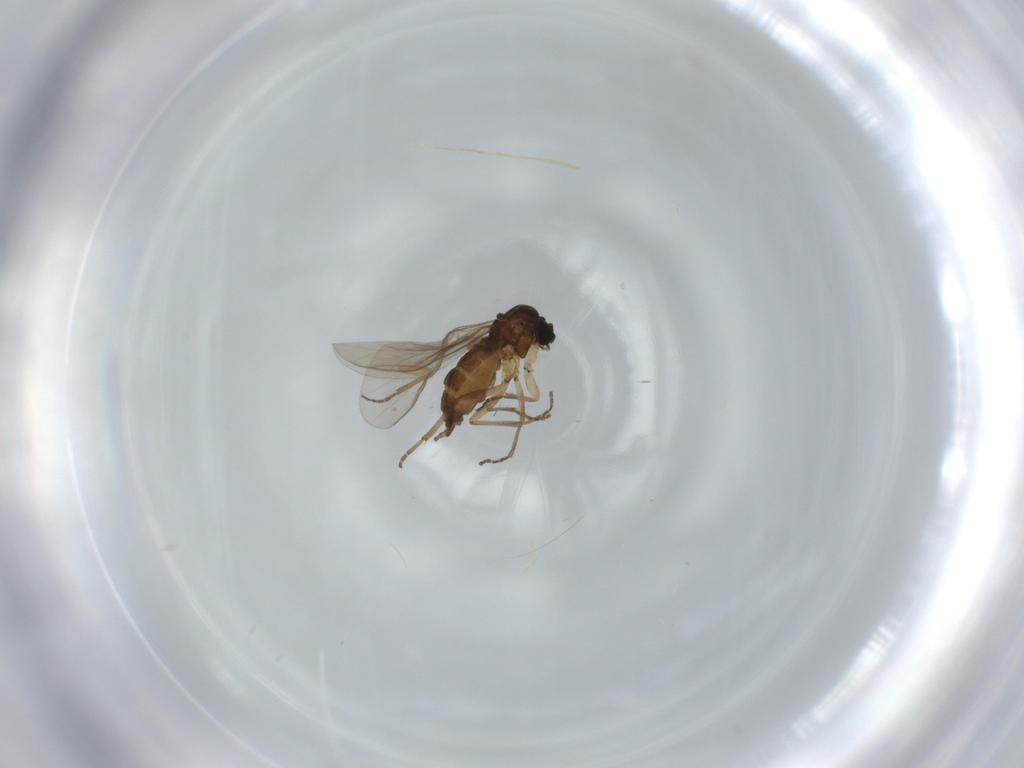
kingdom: Animalia
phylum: Arthropoda
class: Insecta
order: Diptera
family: Sciaridae
